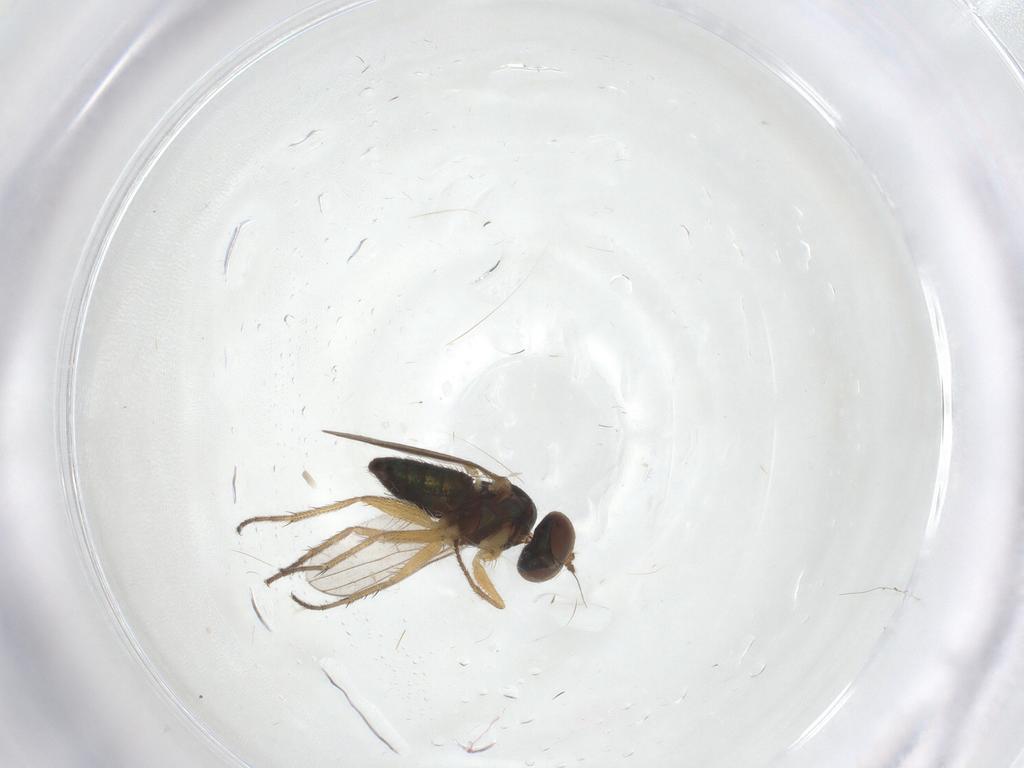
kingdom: Animalia
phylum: Arthropoda
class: Insecta
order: Diptera
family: Dolichopodidae
